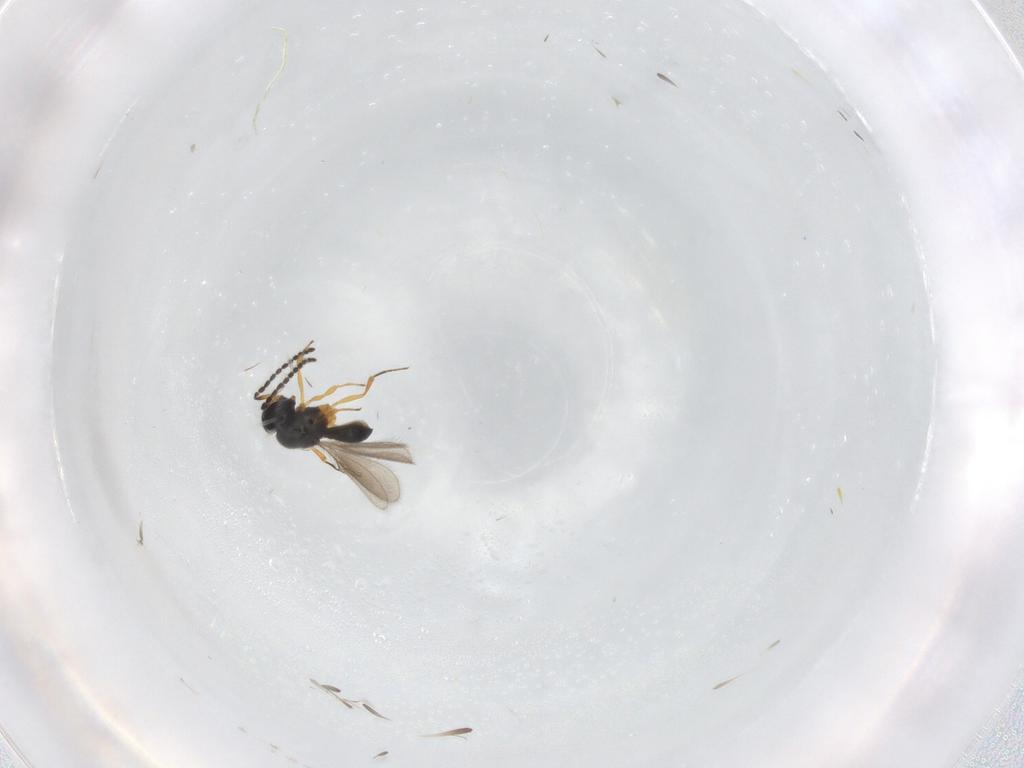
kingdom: Animalia
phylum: Arthropoda
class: Insecta
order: Hymenoptera
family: Scelionidae
